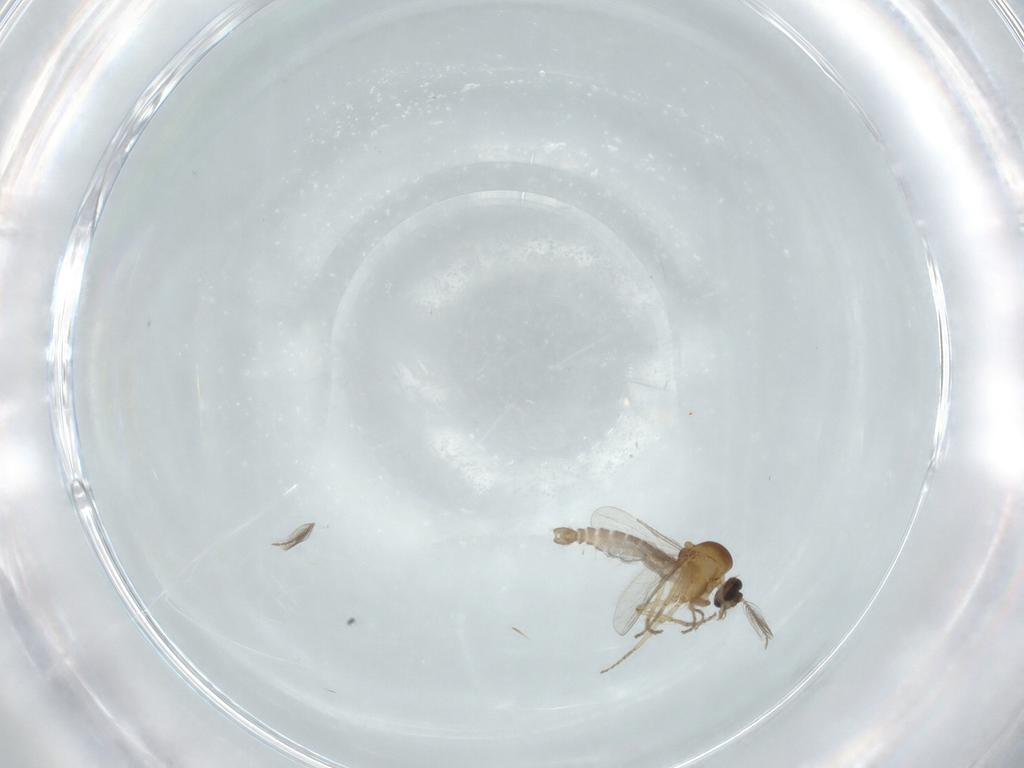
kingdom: Animalia
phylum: Arthropoda
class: Insecta
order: Diptera
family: Ceratopogonidae
